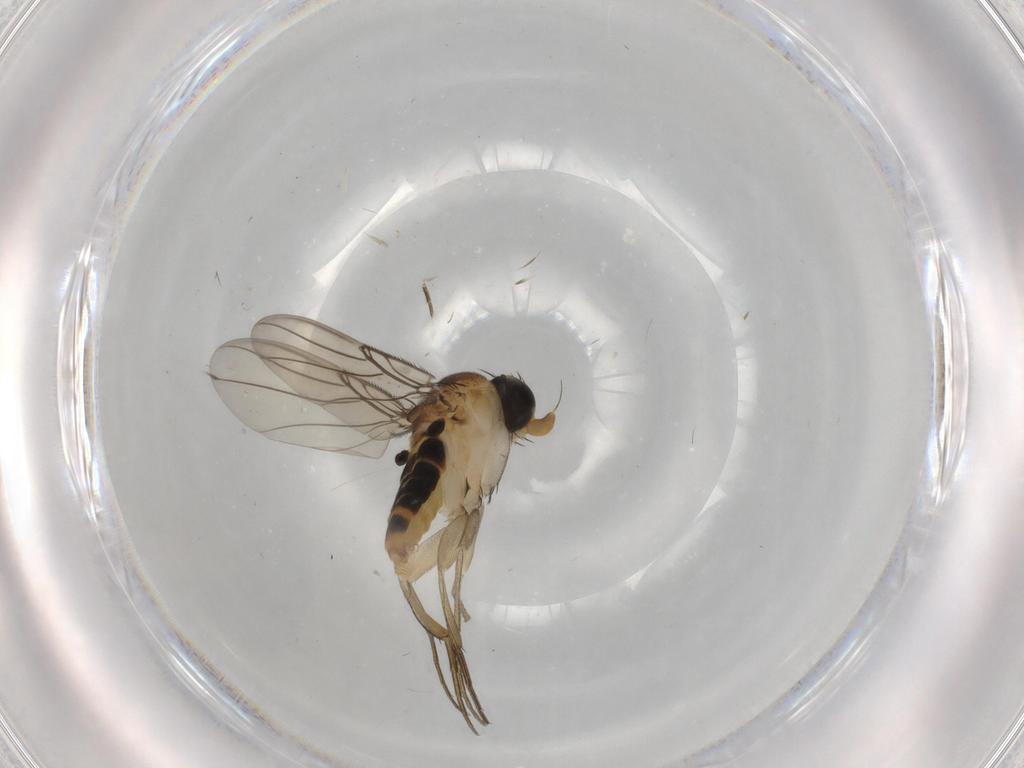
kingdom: Animalia
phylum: Arthropoda
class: Insecta
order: Diptera
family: Phoridae
